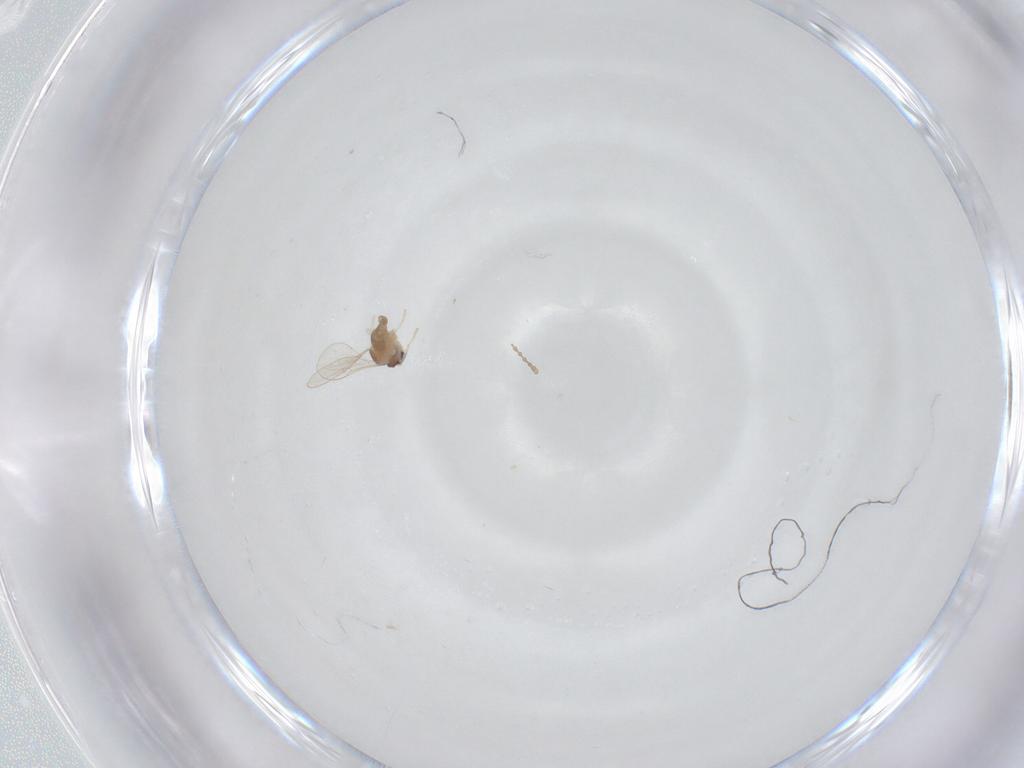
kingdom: Animalia
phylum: Arthropoda
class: Insecta
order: Diptera
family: Cecidomyiidae
